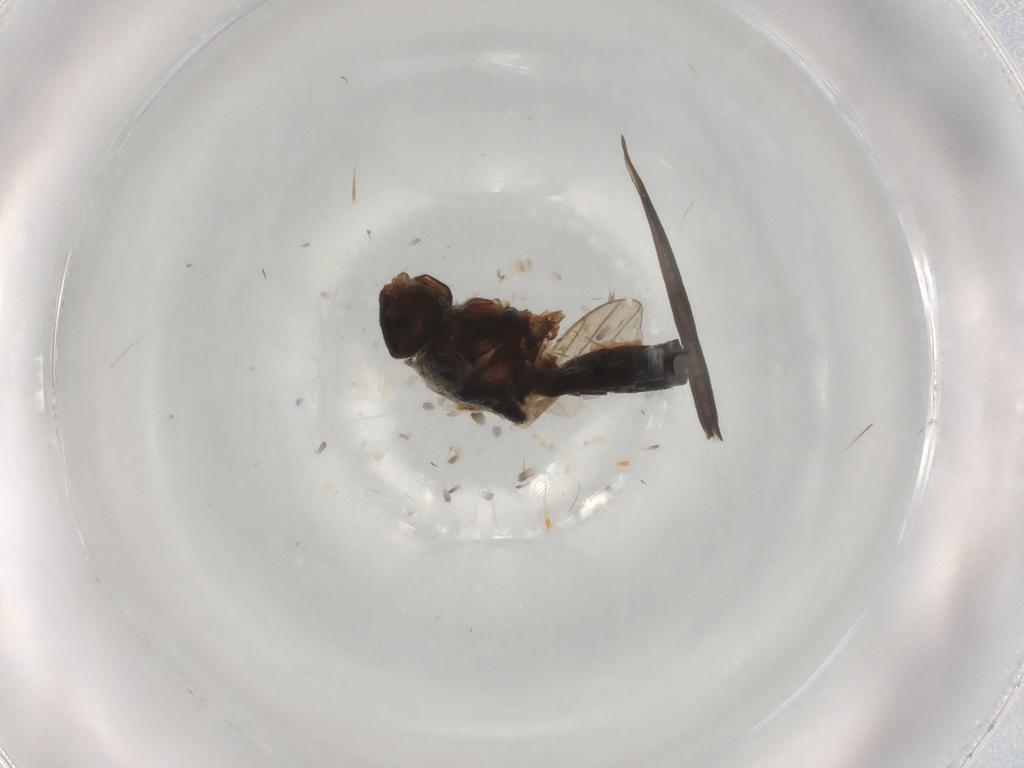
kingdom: Animalia
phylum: Arthropoda
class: Insecta
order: Diptera
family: Chloropidae
